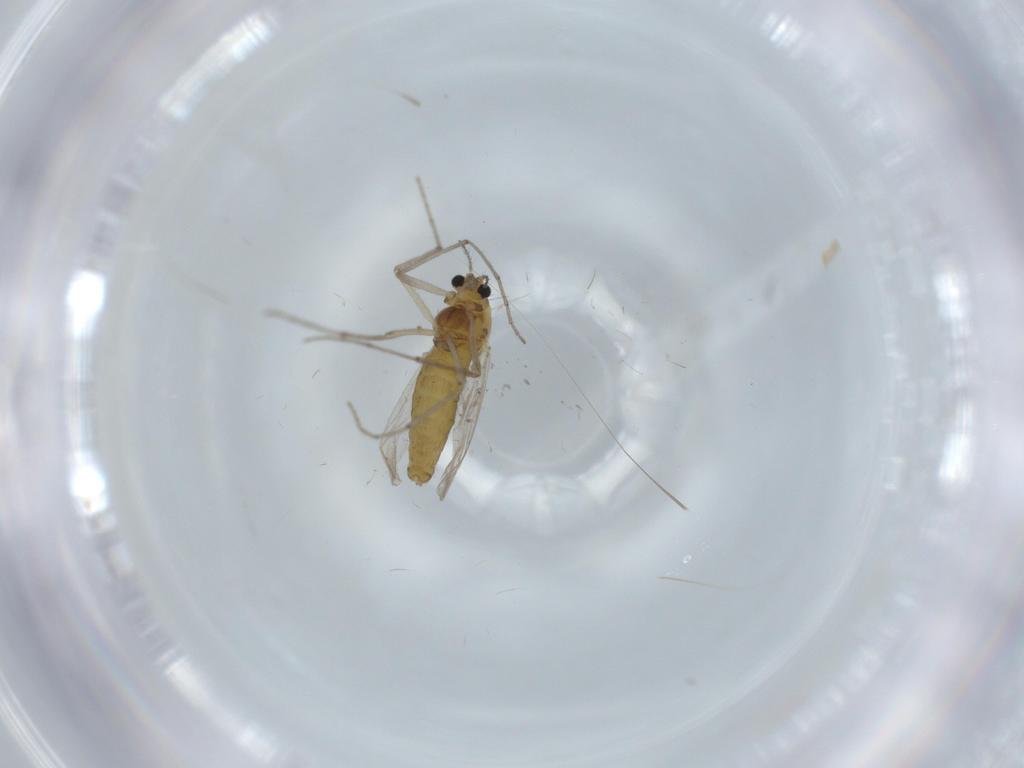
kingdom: Animalia
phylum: Arthropoda
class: Insecta
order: Diptera
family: Chironomidae
